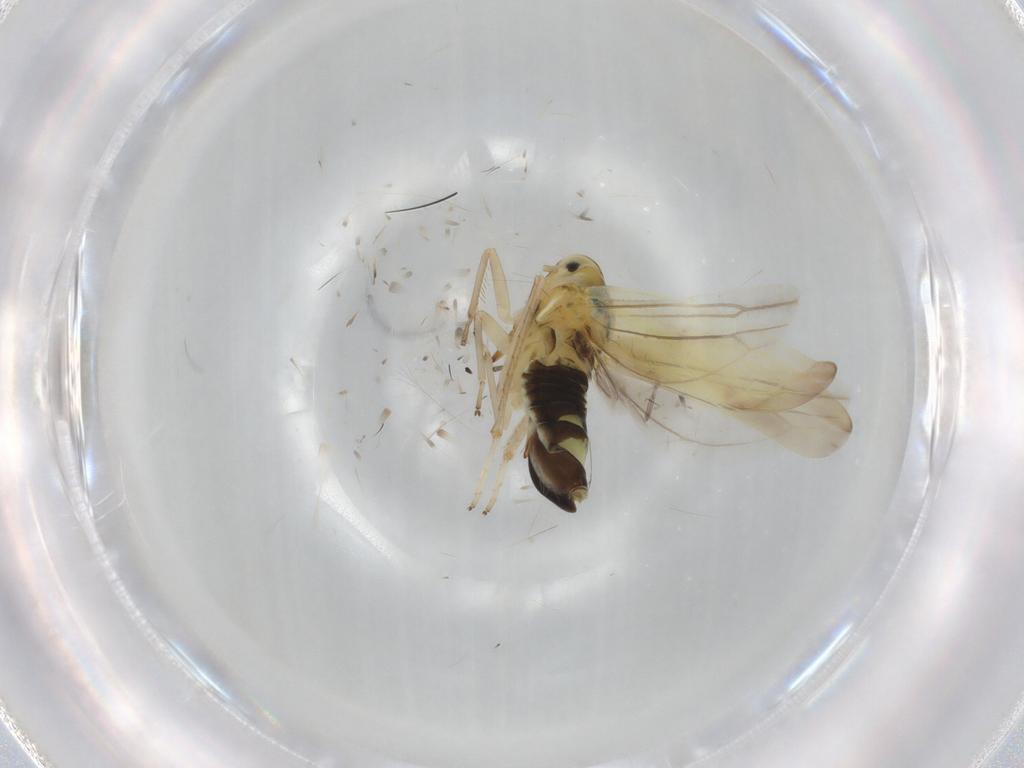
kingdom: Animalia
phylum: Arthropoda
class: Insecta
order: Hemiptera
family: Cicadellidae
